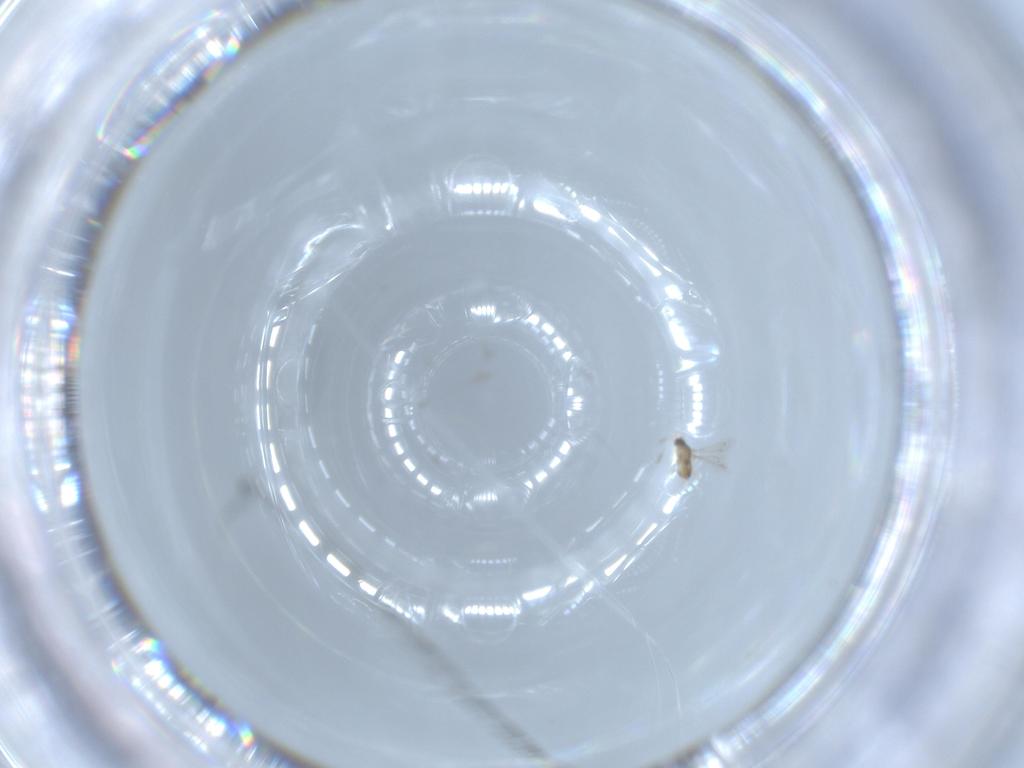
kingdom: Animalia
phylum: Arthropoda
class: Insecta
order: Hymenoptera
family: Mymaridae
